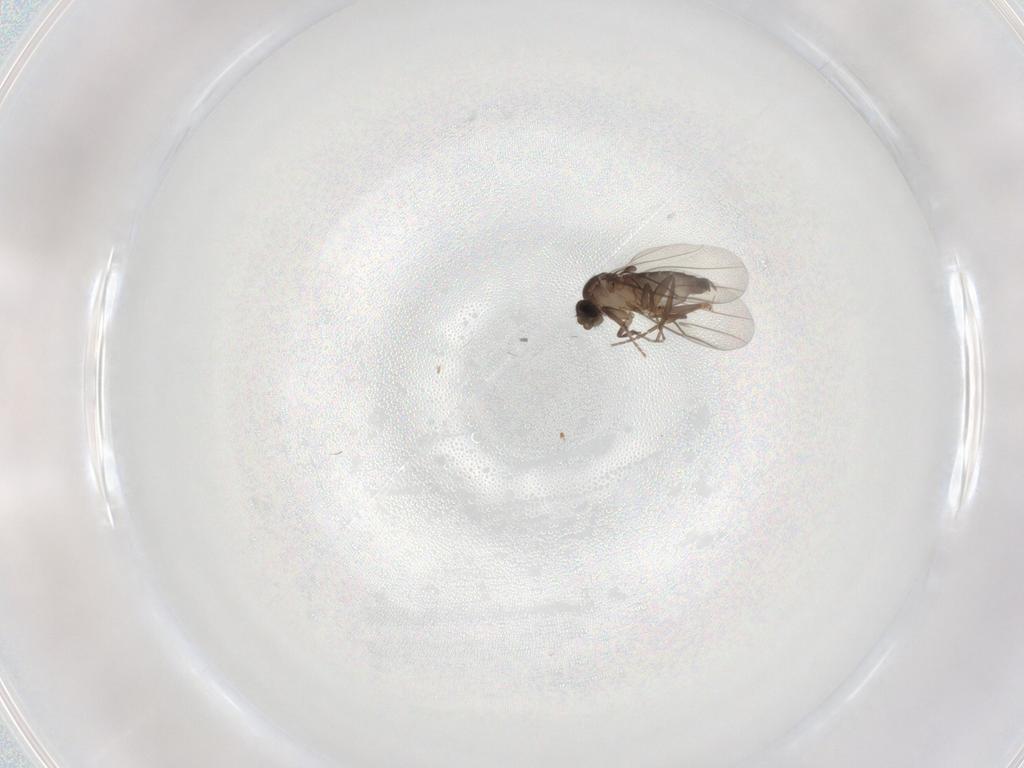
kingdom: Animalia
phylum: Arthropoda
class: Insecta
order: Diptera
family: Phoridae
